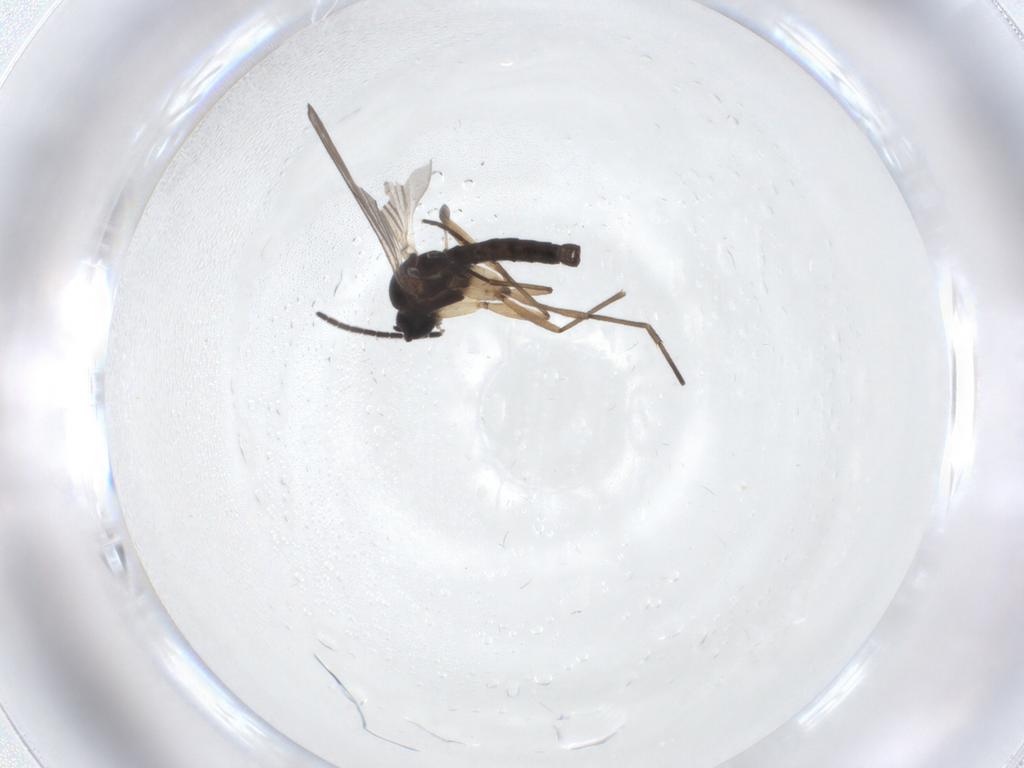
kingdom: Animalia
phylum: Arthropoda
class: Insecta
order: Diptera
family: Sciaridae
